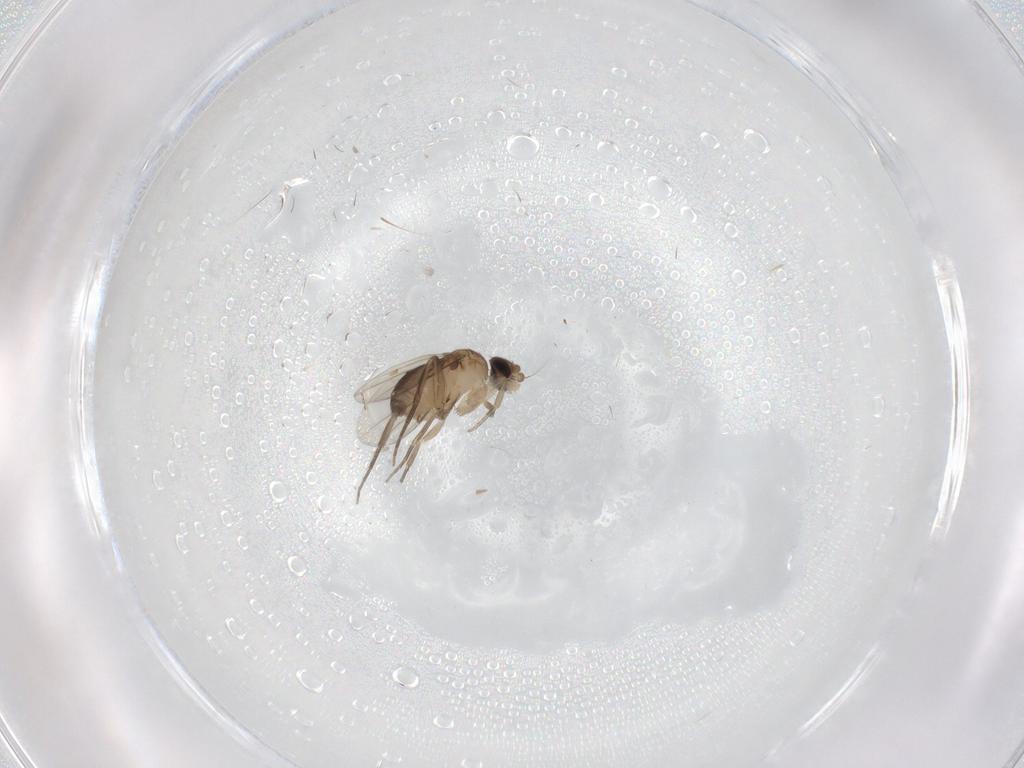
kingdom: Animalia
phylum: Arthropoda
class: Insecta
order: Diptera
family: Phoridae
